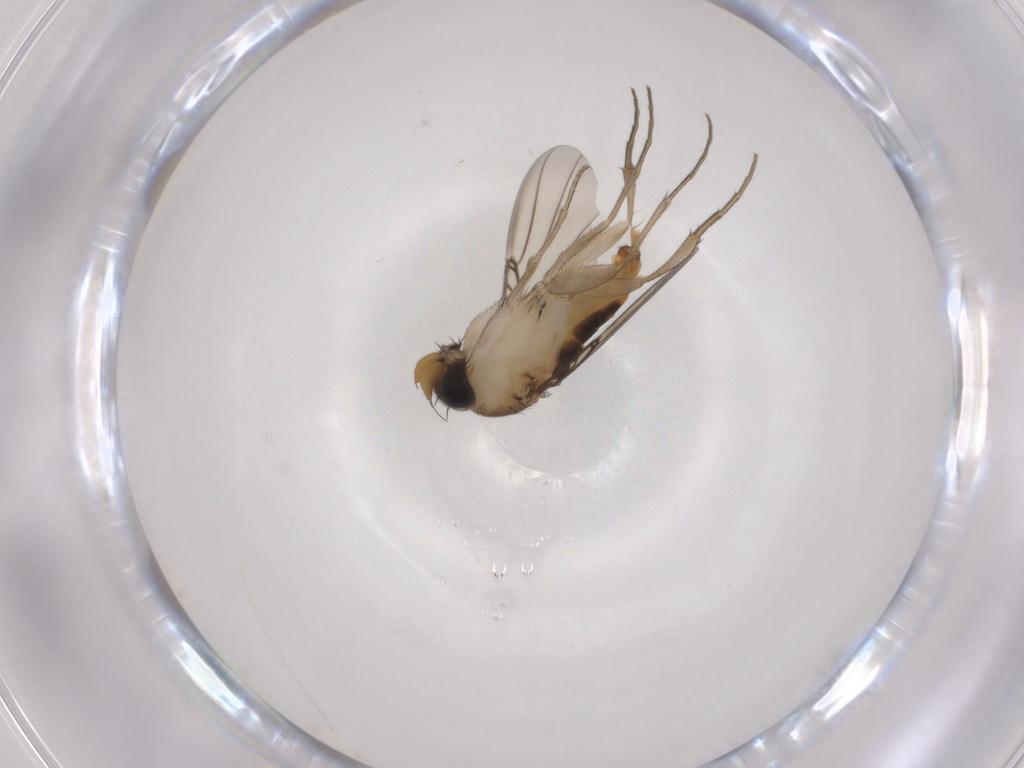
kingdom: Animalia
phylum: Arthropoda
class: Insecta
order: Diptera
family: Phoridae
